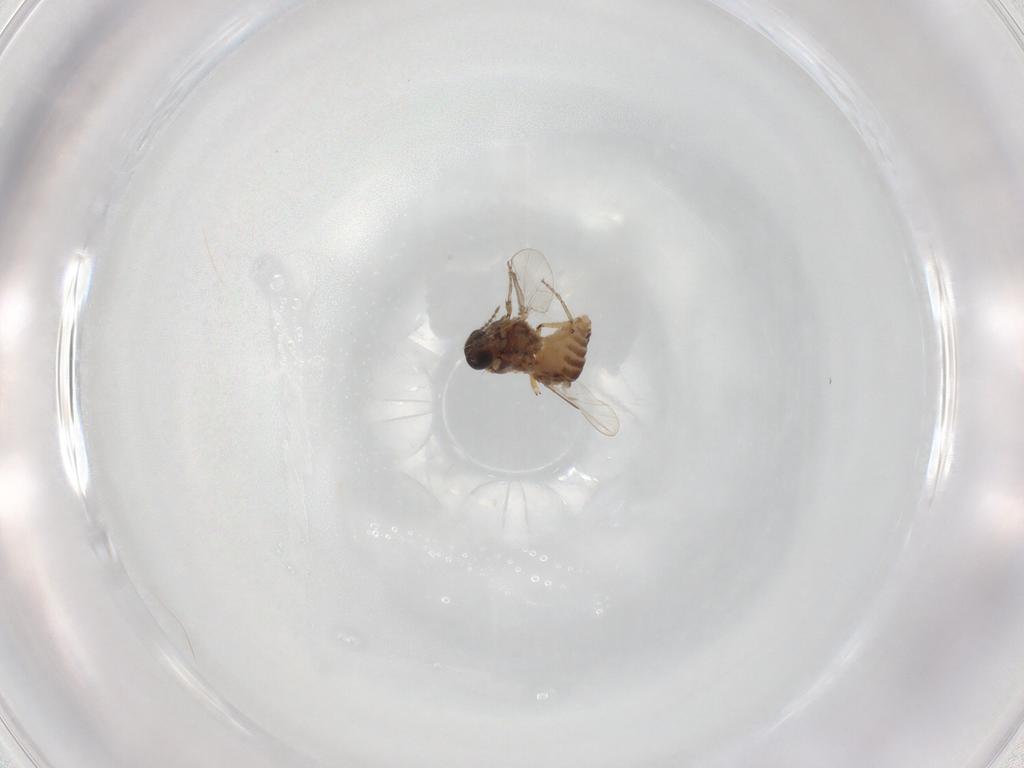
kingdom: Animalia
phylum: Arthropoda
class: Insecta
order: Diptera
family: Ceratopogonidae
